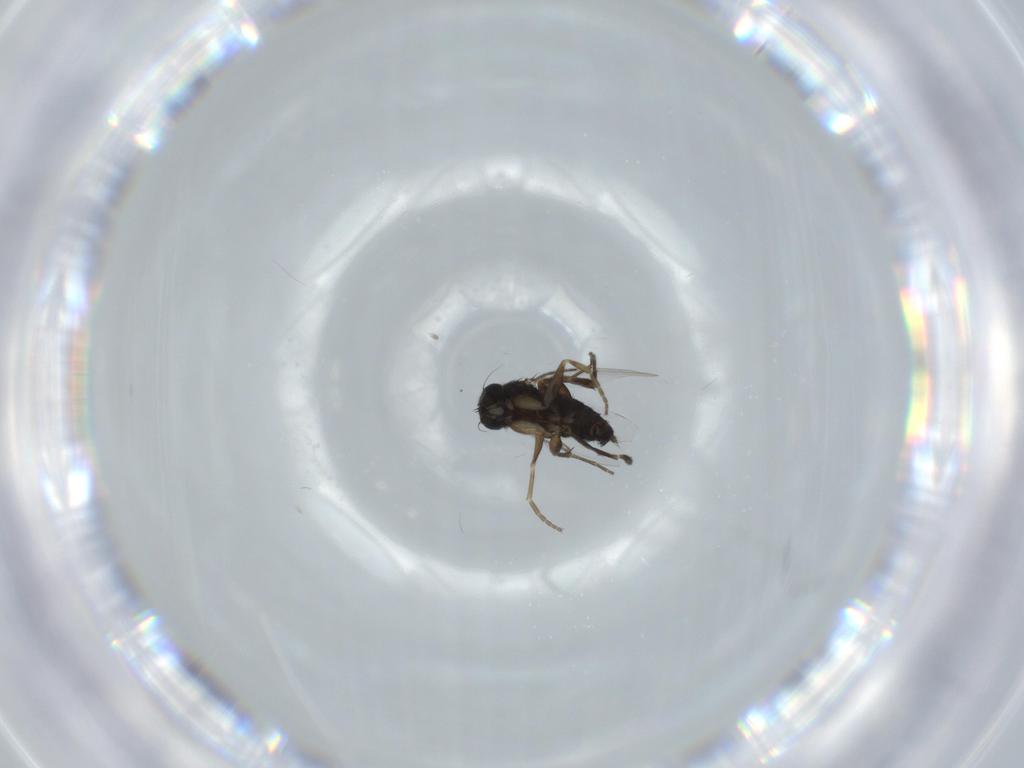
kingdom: Animalia
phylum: Arthropoda
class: Insecta
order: Diptera
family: Phoridae
